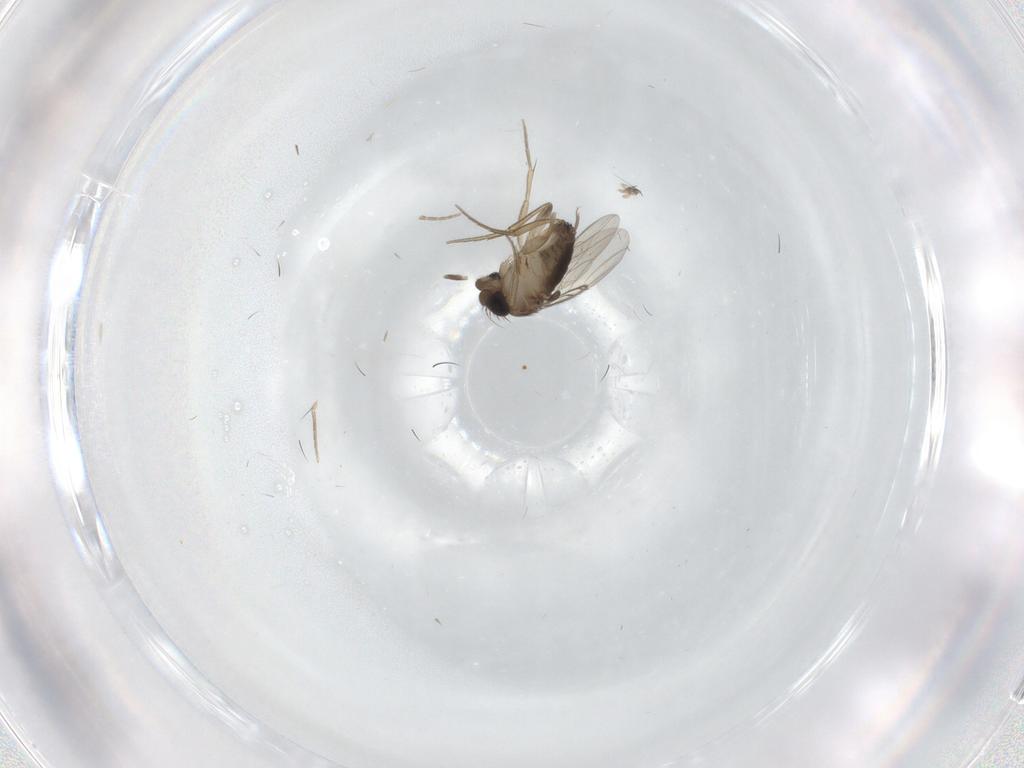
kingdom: Animalia
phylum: Arthropoda
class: Insecta
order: Diptera
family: Phoridae
